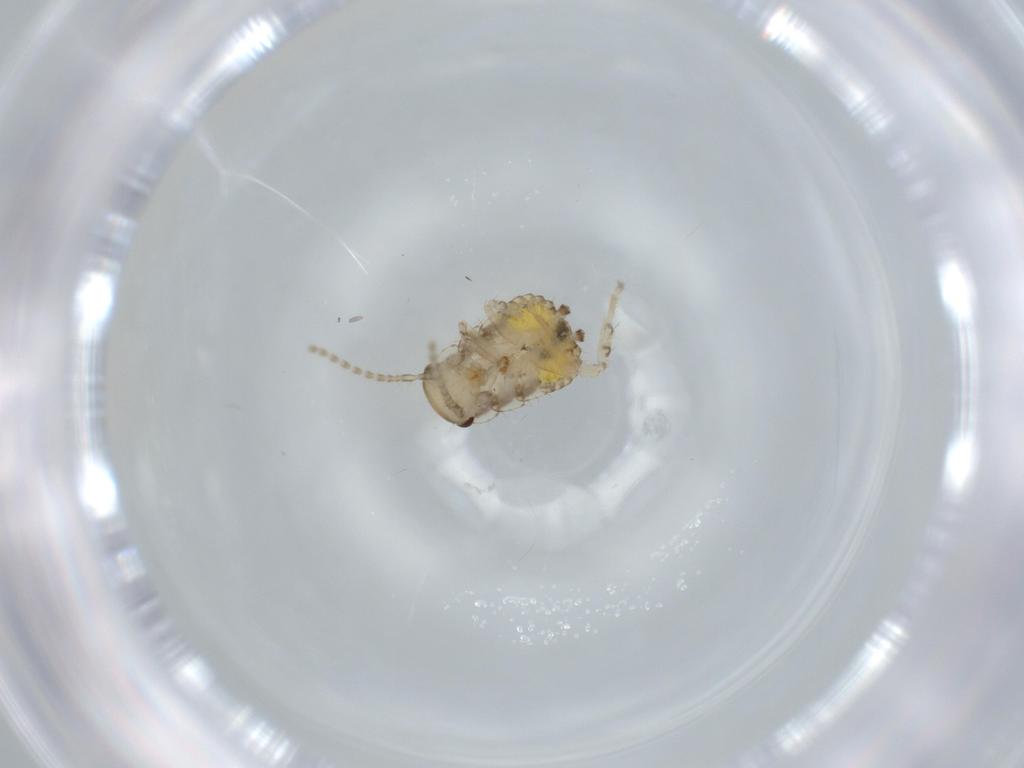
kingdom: Animalia
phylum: Arthropoda
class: Insecta
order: Blattodea
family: Ectobiidae
